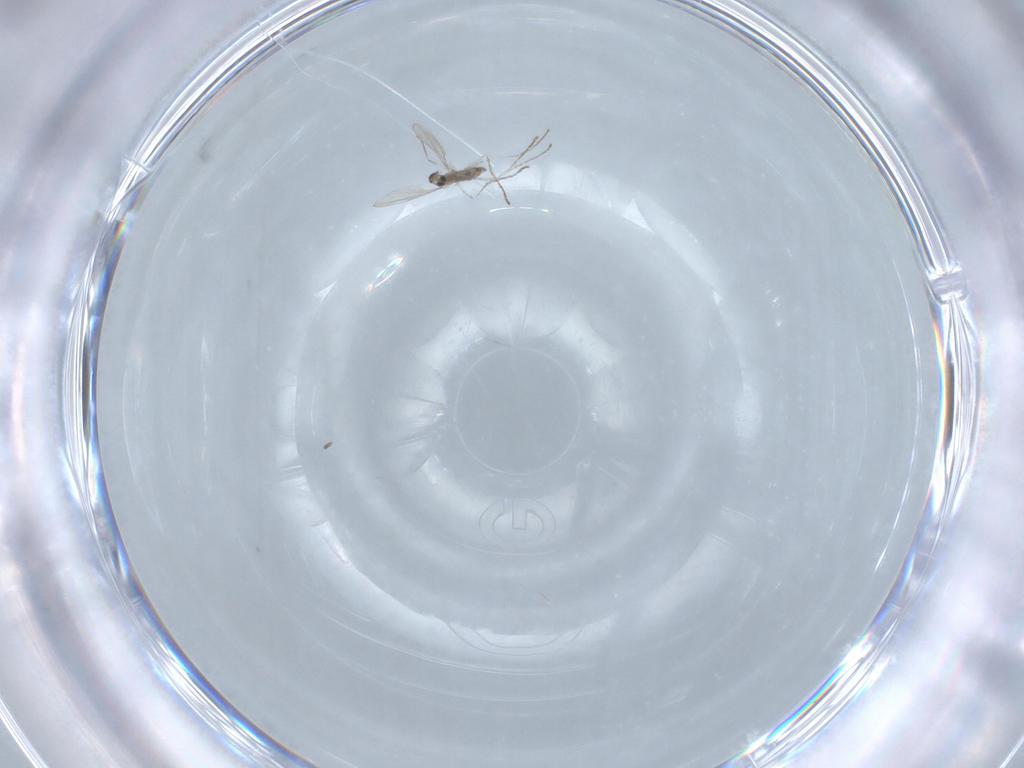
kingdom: Animalia
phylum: Arthropoda
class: Insecta
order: Diptera
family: Cecidomyiidae
